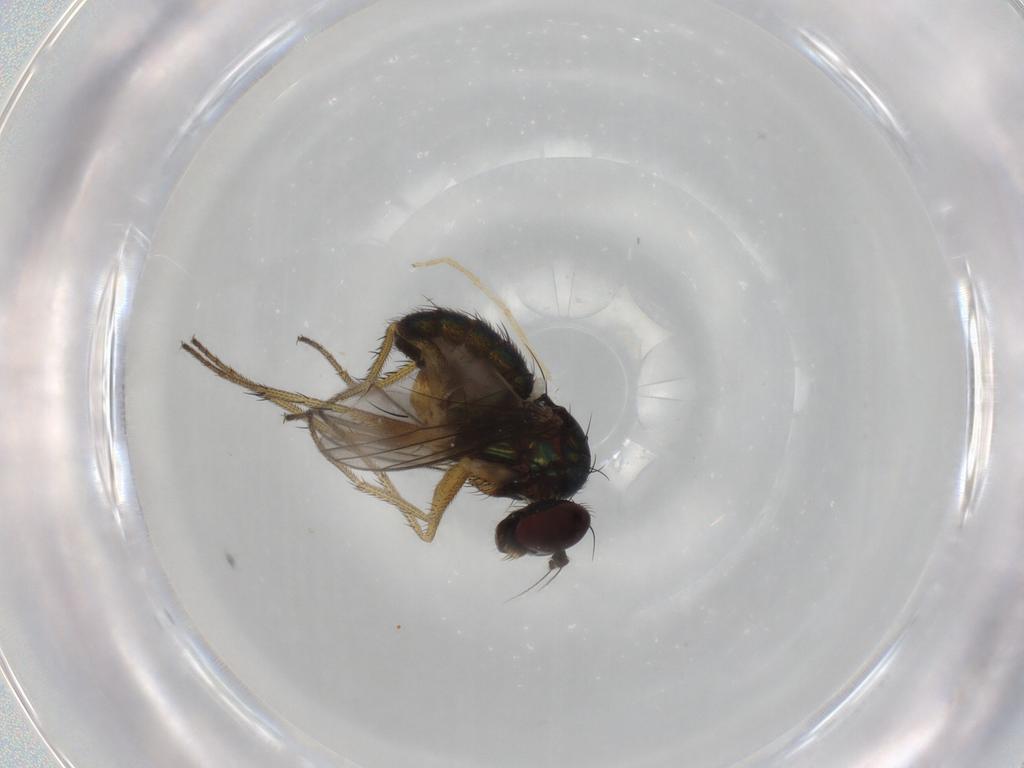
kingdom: Animalia
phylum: Arthropoda
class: Insecta
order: Diptera
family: Dolichopodidae
